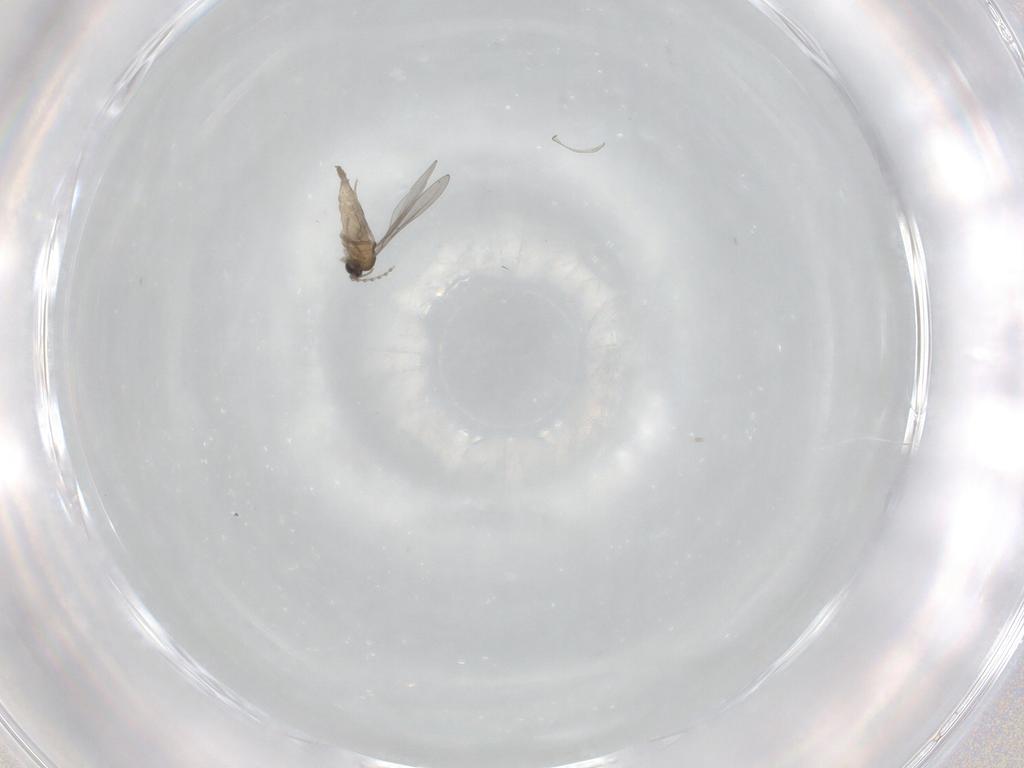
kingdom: Animalia
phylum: Arthropoda
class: Insecta
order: Diptera
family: Cecidomyiidae
